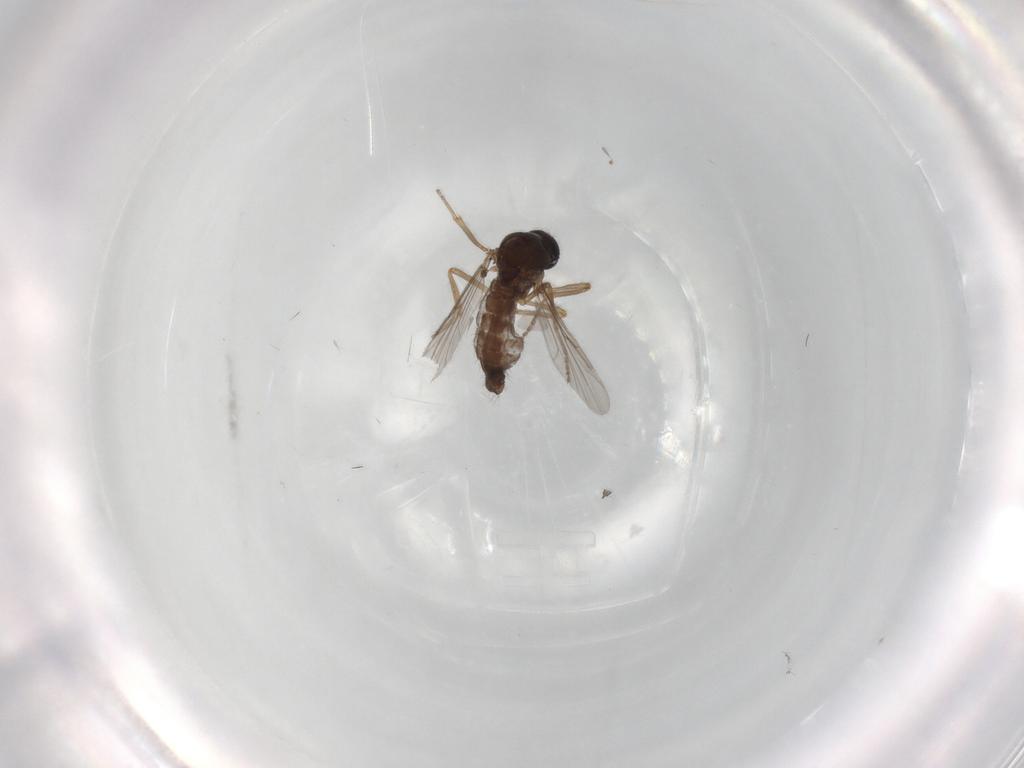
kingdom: Animalia
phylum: Arthropoda
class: Insecta
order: Diptera
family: Ceratopogonidae
